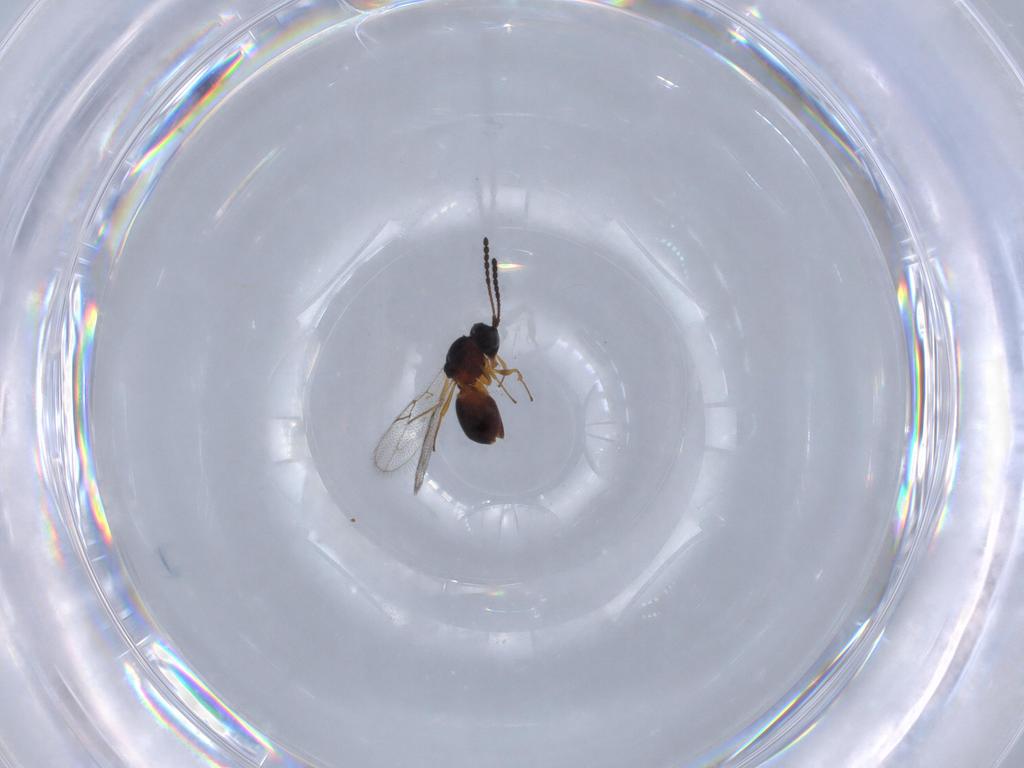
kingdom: Animalia
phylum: Arthropoda
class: Insecta
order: Hymenoptera
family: Figitidae
